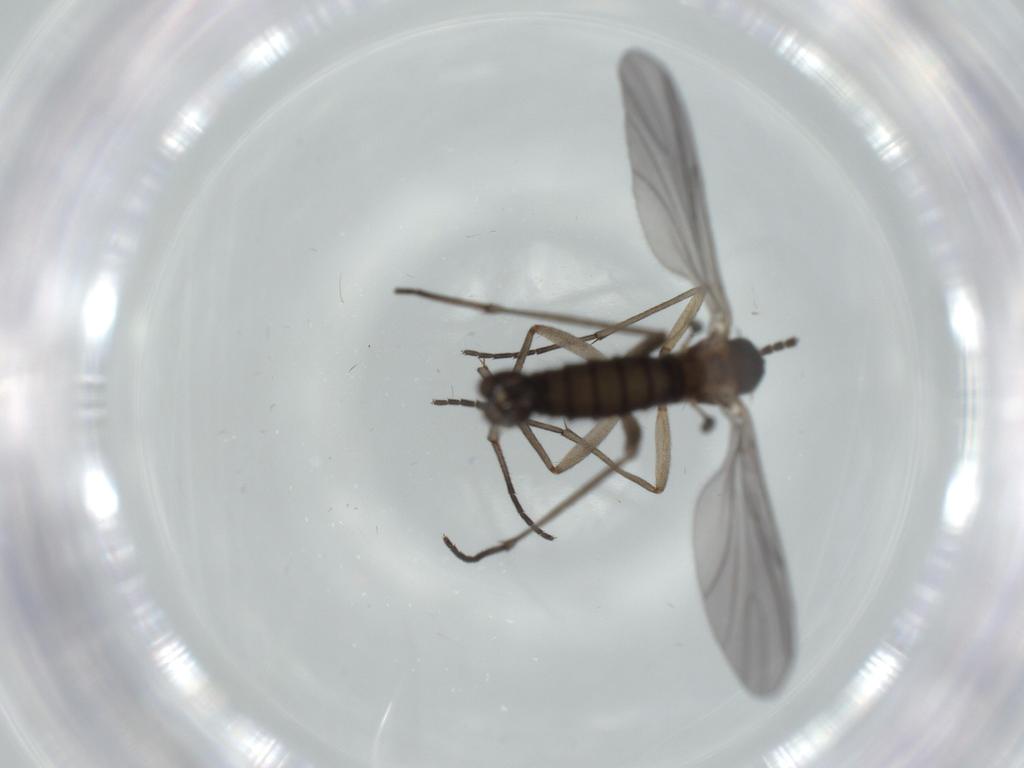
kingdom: Animalia
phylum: Arthropoda
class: Insecta
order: Diptera
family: Sciaridae
